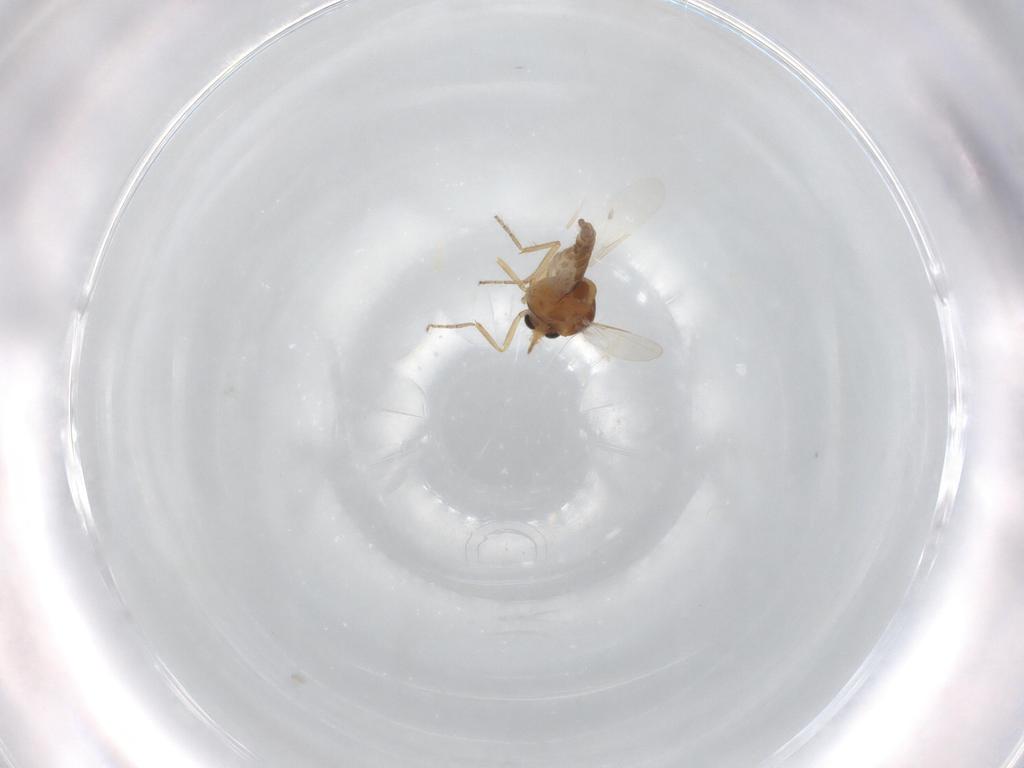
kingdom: Animalia
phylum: Arthropoda
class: Insecta
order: Diptera
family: Ceratopogonidae
